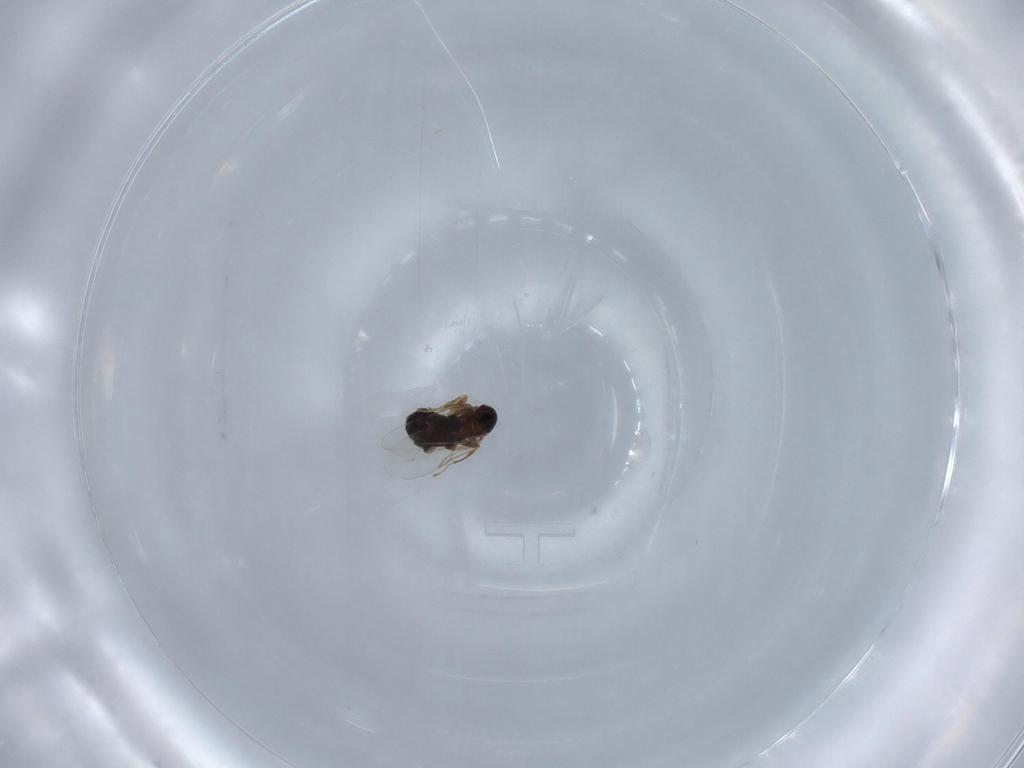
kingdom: Animalia
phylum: Arthropoda
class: Insecta
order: Diptera
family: Scatopsidae
